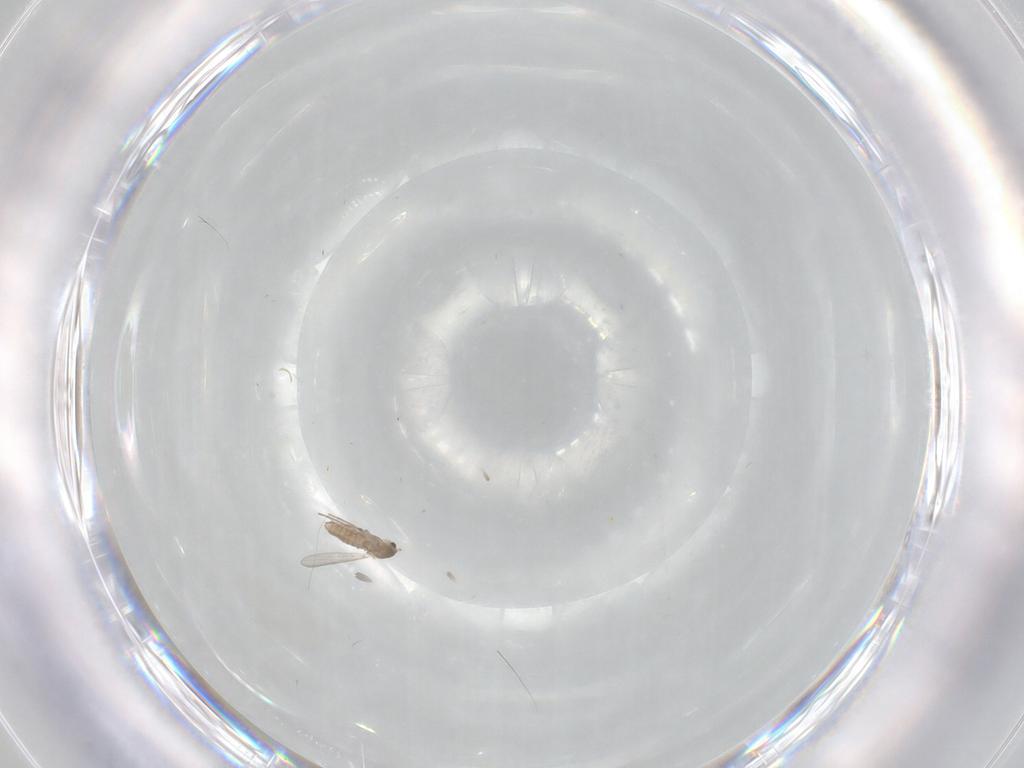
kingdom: Animalia
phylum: Arthropoda
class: Insecta
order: Diptera
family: Chironomidae
